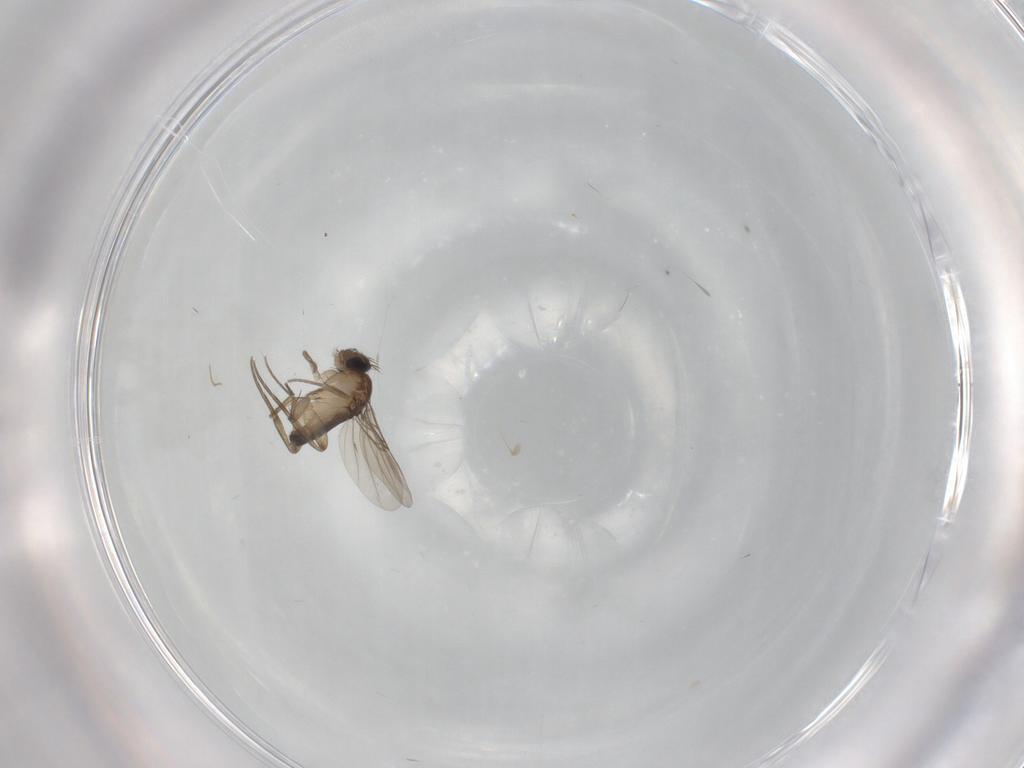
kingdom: Animalia
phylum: Arthropoda
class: Insecta
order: Diptera
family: Phoridae
